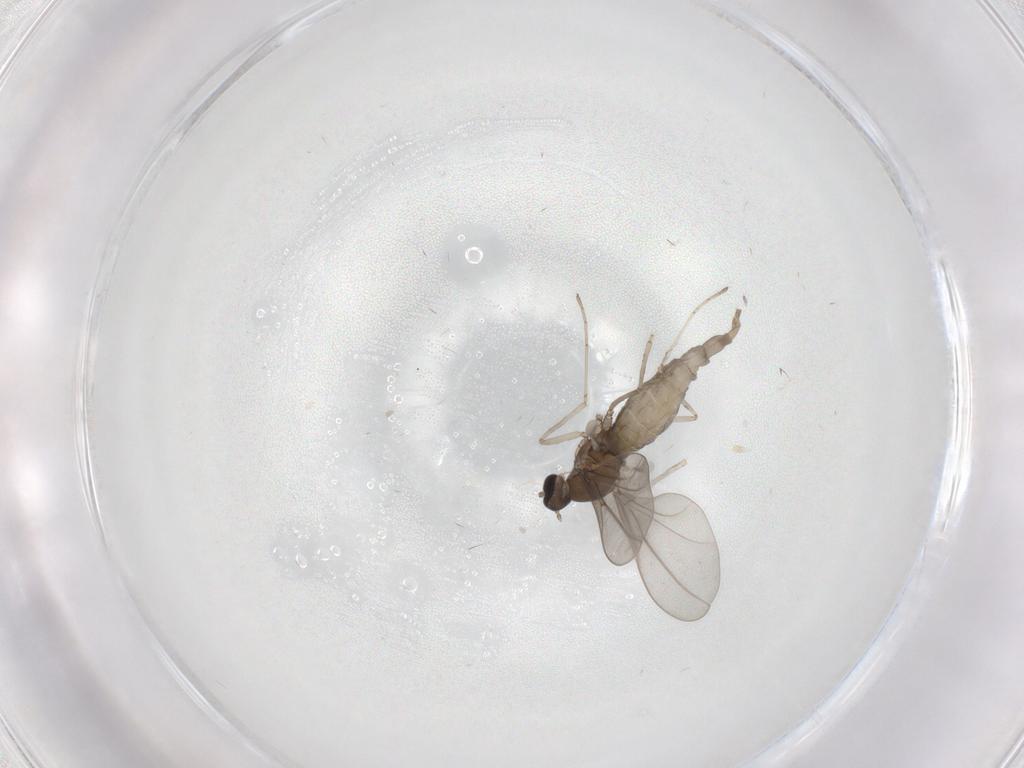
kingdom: Animalia
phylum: Arthropoda
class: Insecta
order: Diptera
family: Cecidomyiidae
